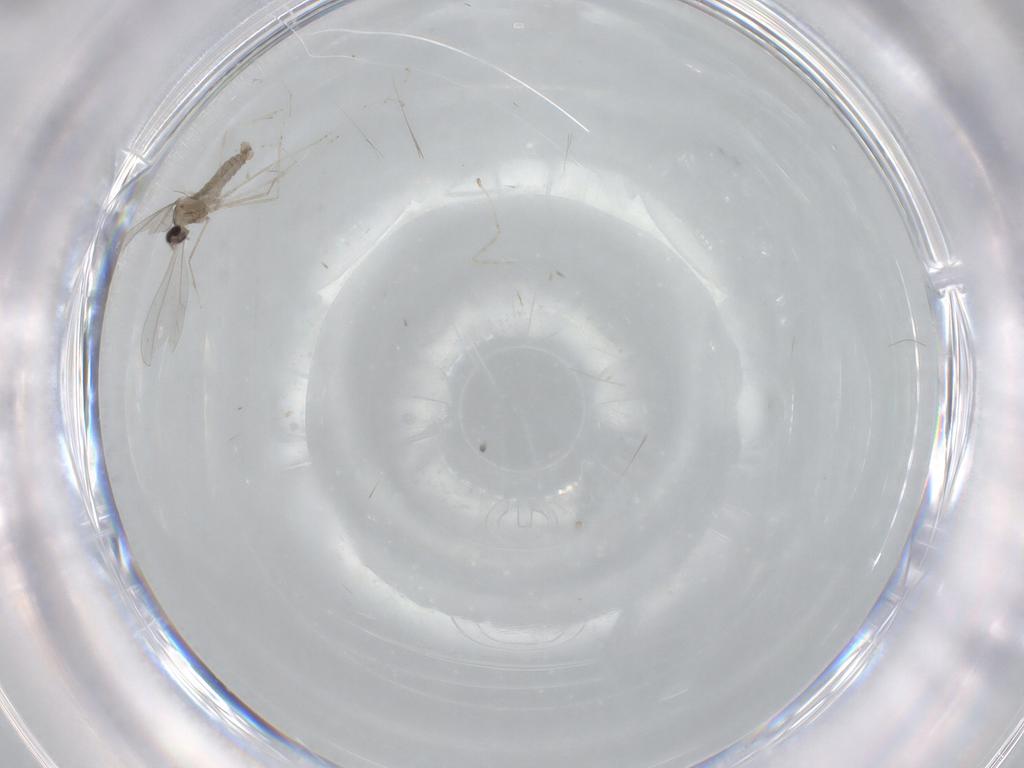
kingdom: Animalia
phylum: Arthropoda
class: Insecta
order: Diptera
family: Cecidomyiidae
